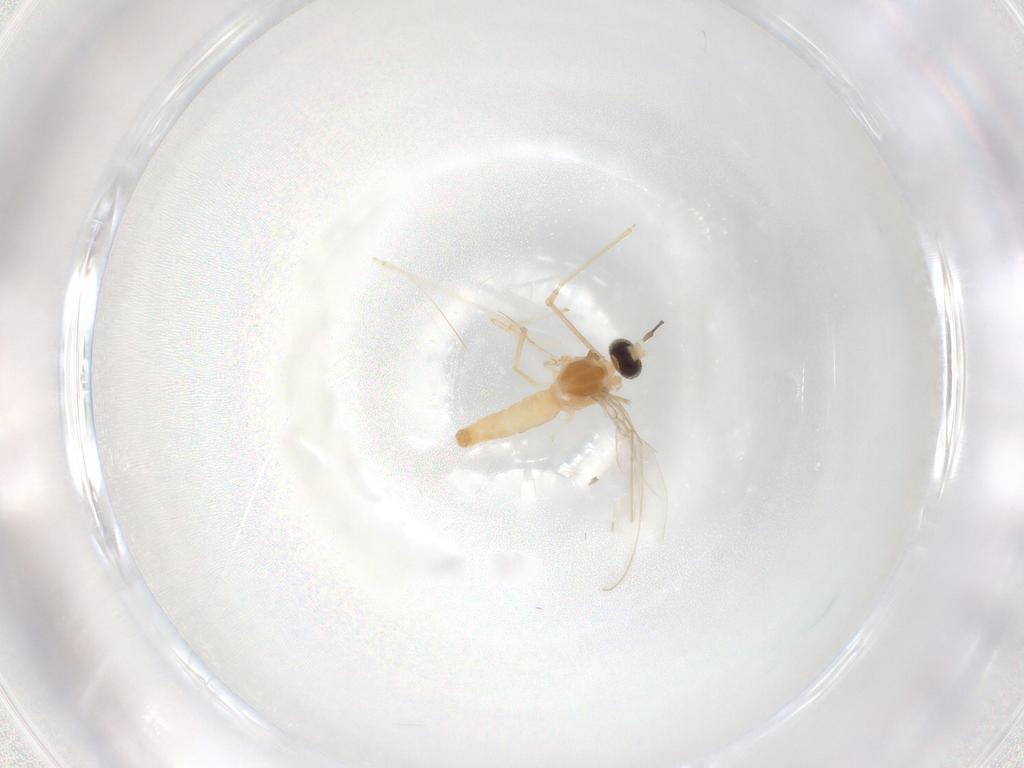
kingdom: Animalia
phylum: Arthropoda
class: Insecta
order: Diptera
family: Cecidomyiidae
